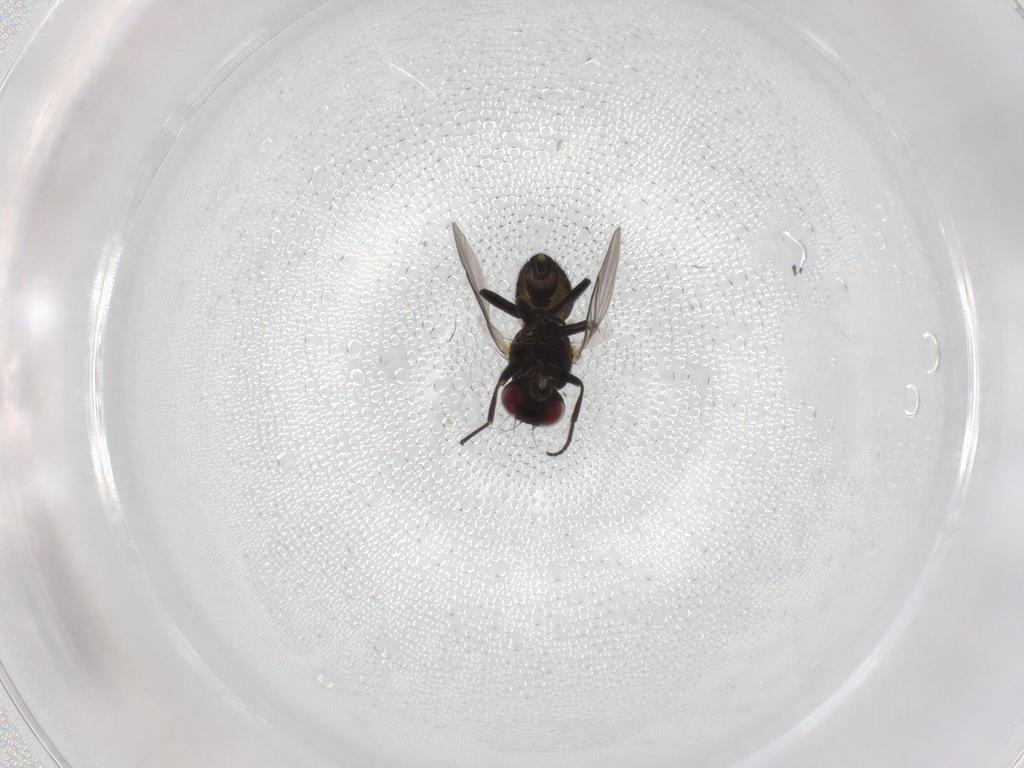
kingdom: Animalia
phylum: Arthropoda
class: Insecta
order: Diptera
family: Agromyzidae
